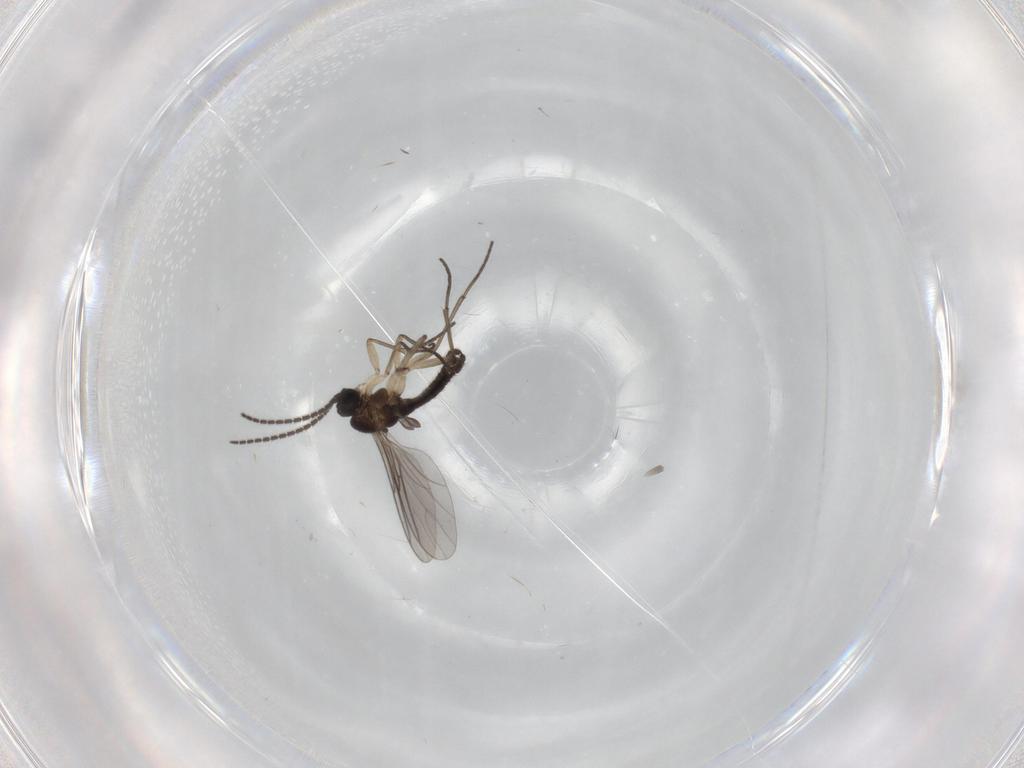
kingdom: Animalia
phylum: Arthropoda
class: Insecta
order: Diptera
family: Sciaridae
